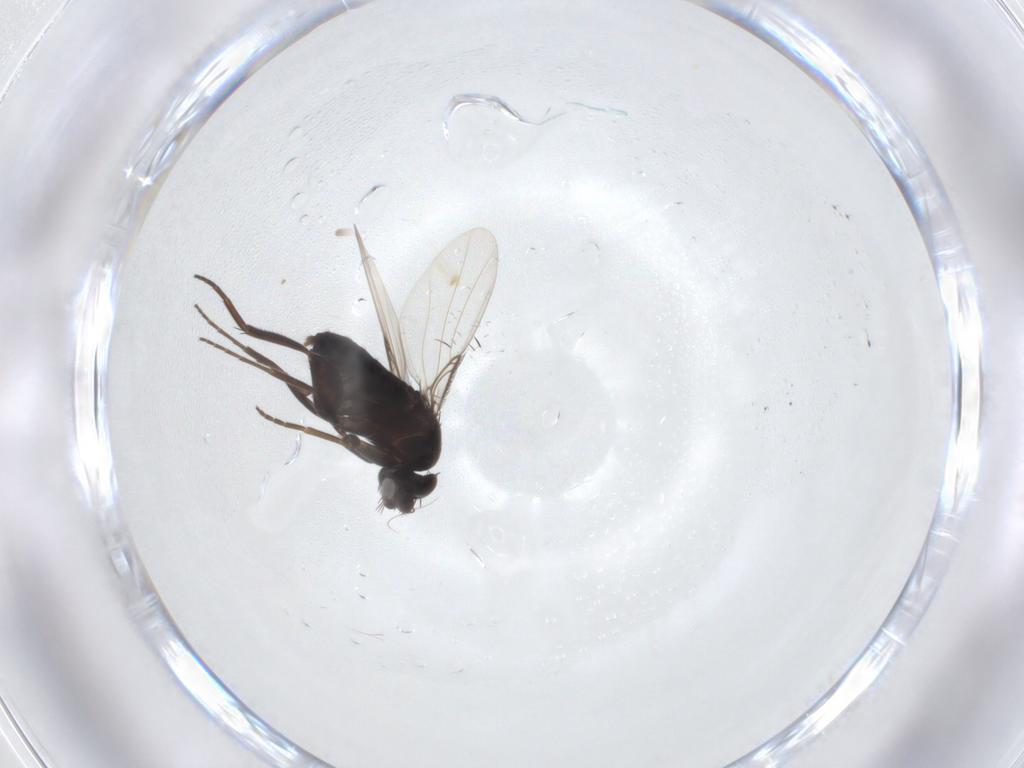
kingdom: Animalia
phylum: Arthropoda
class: Insecta
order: Diptera
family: Phoridae
